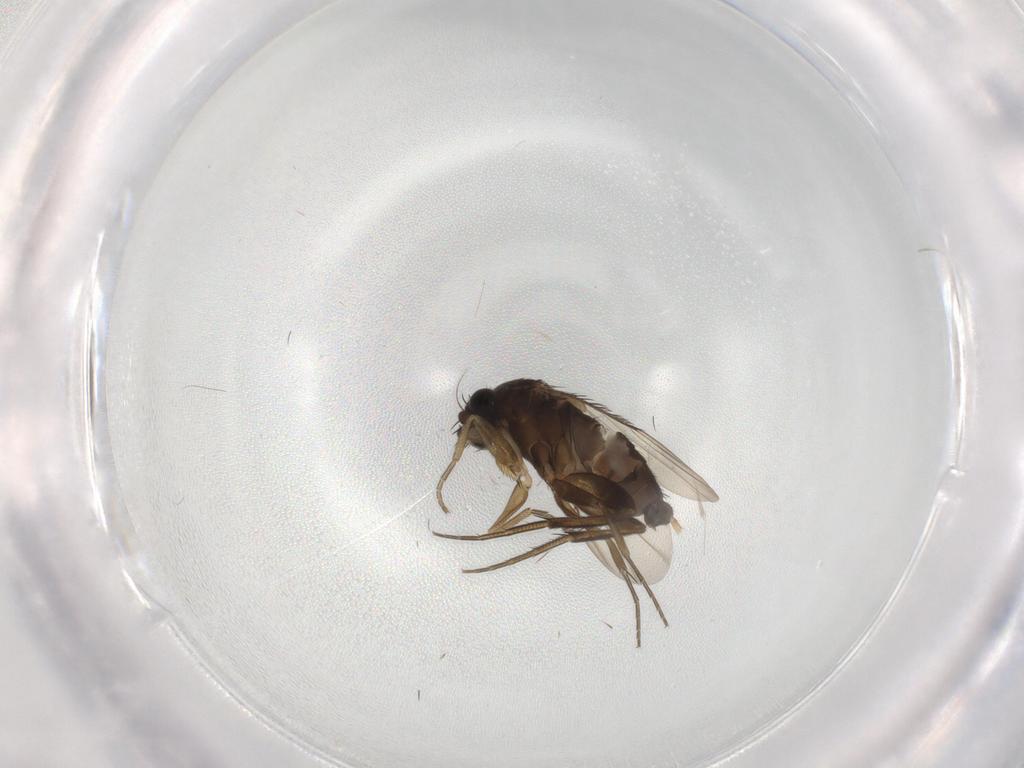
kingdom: Animalia
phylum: Arthropoda
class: Insecta
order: Diptera
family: Phoridae
